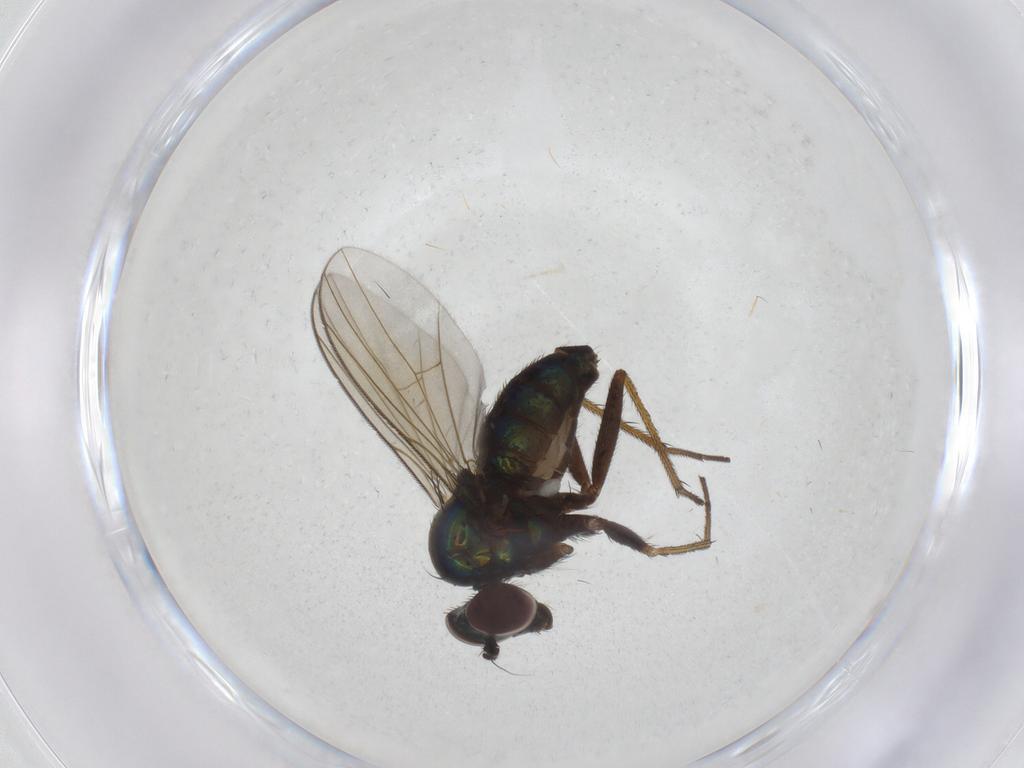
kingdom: Animalia
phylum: Arthropoda
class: Insecta
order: Diptera
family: Dolichopodidae
